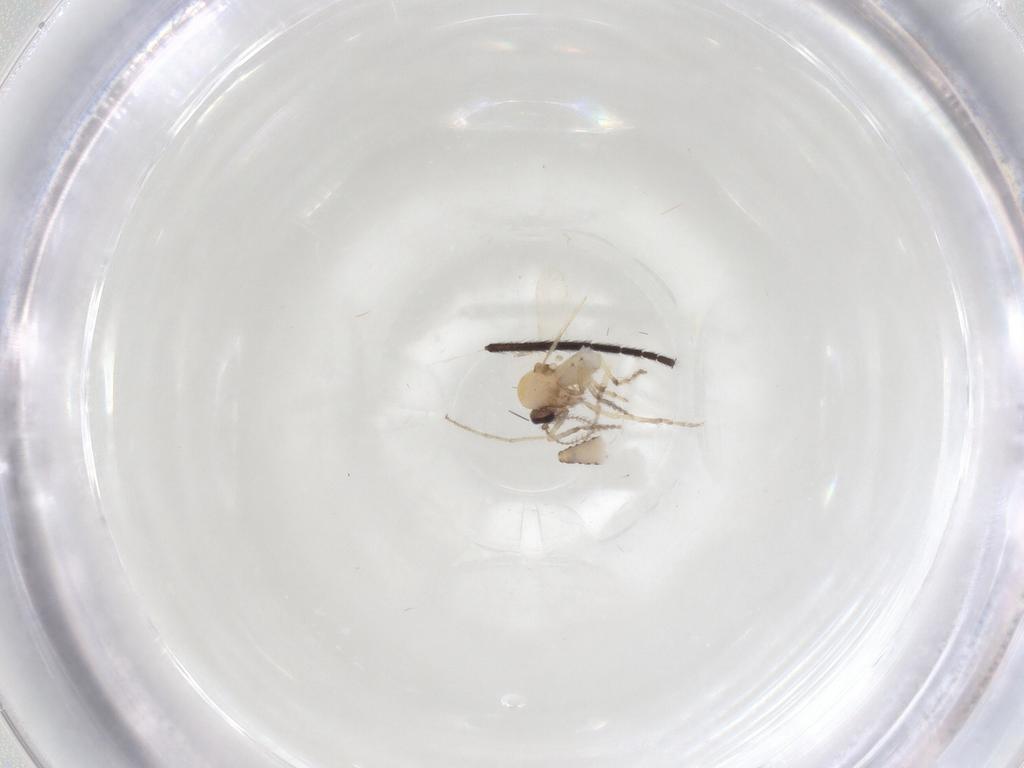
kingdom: Animalia
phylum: Arthropoda
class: Insecta
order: Diptera
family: Ceratopogonidae
